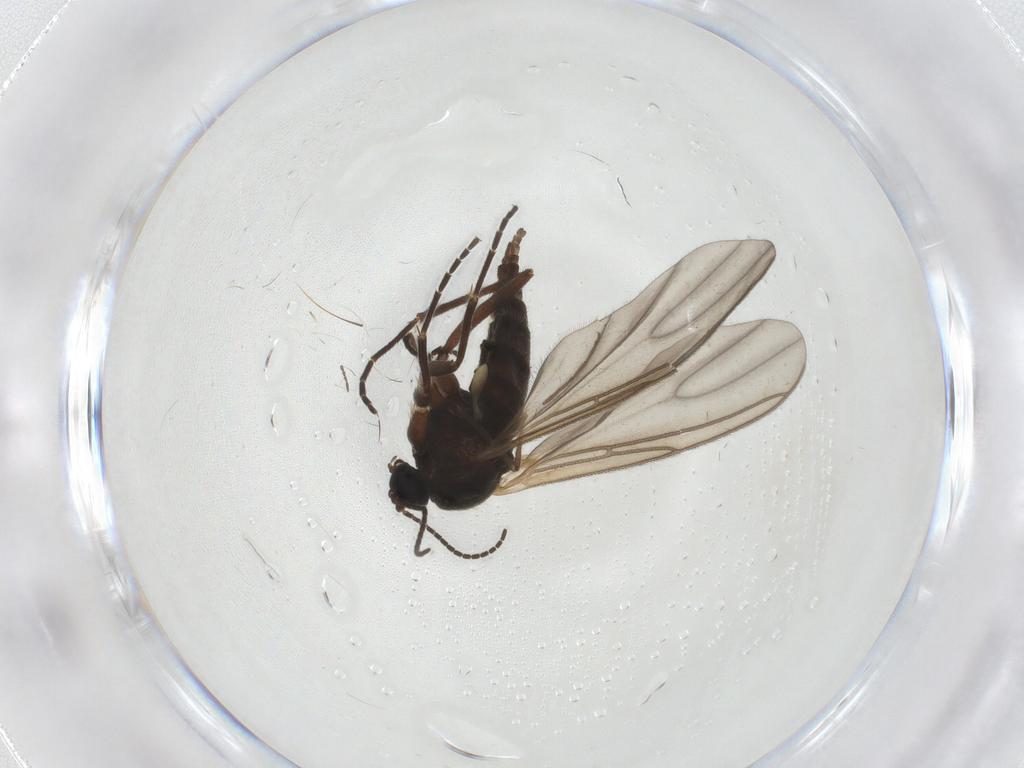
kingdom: Animalia
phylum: Arthropoda
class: Insecta
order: Diptera
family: Sciaridae
